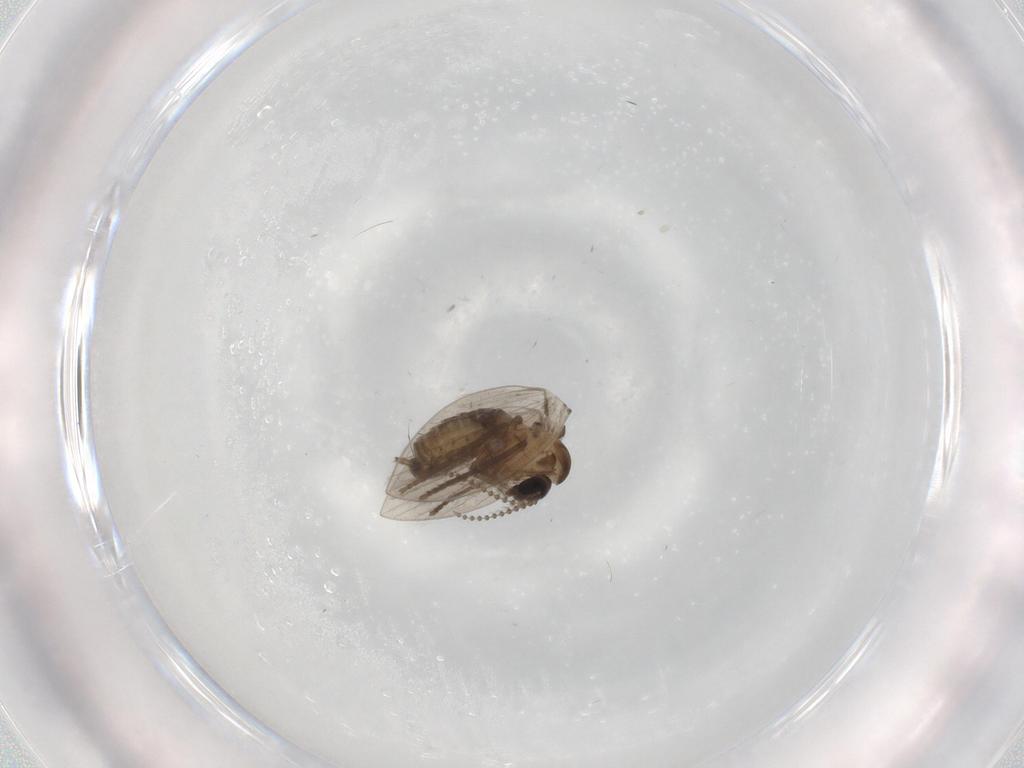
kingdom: Animalia
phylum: Arthropoda
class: Insecta
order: Diptera
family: Psychodidae
